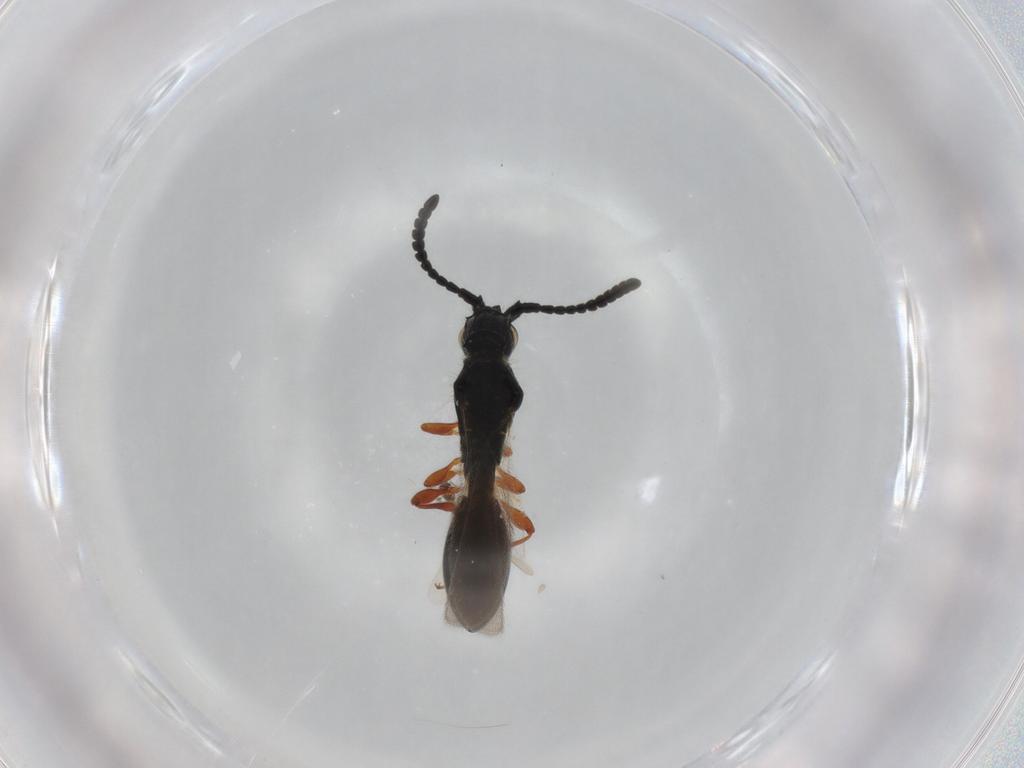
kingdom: Animalia
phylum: Arthropoda
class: Insecta
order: Hymenoptera
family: Diapriidae
